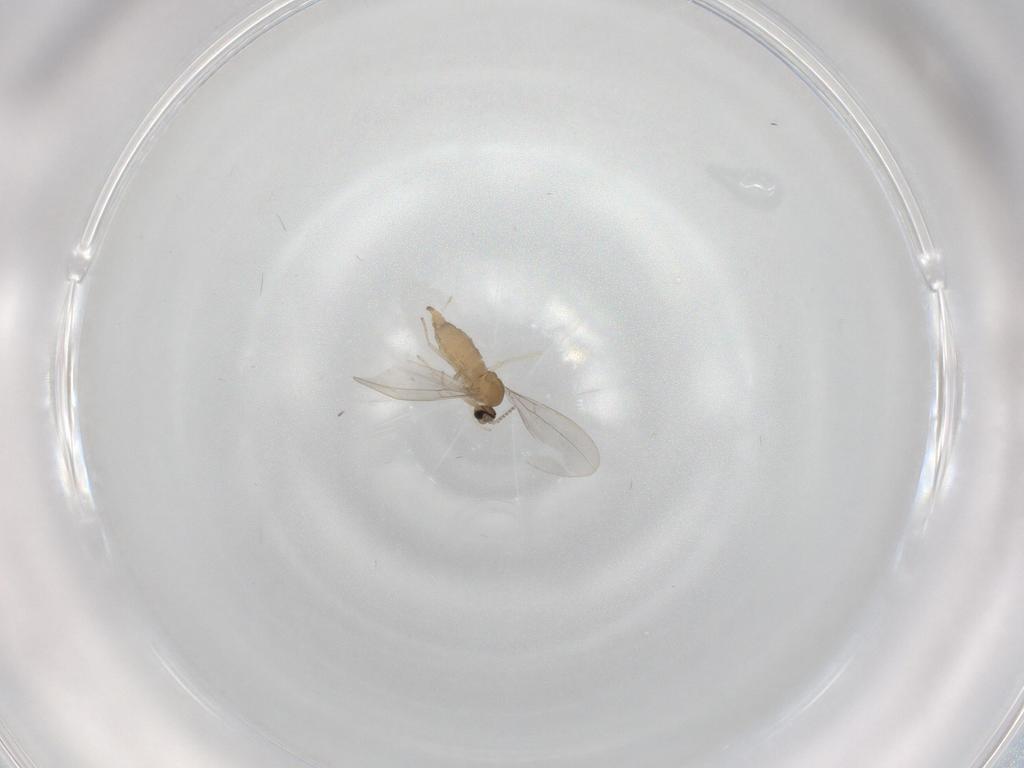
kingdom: Animalia
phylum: Arthropoda
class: Insecta
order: Diptera
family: Cecidomyiidae
